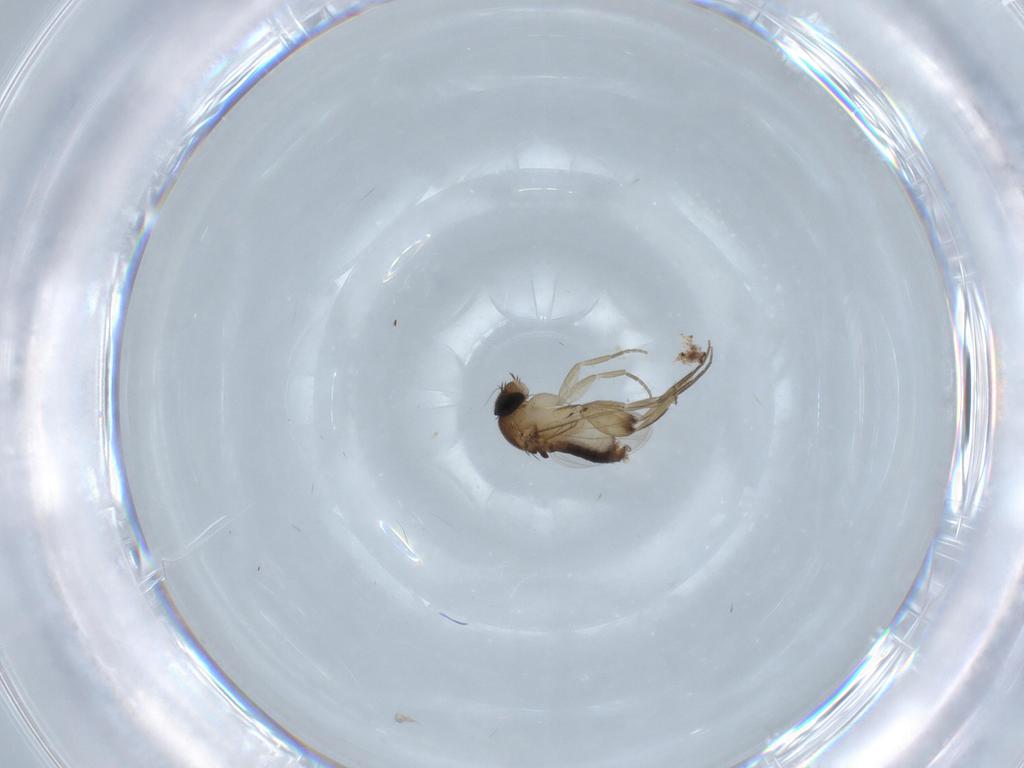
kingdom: Animalia
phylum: Arthropoda
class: Insecta
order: Diptera
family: Phoridae
